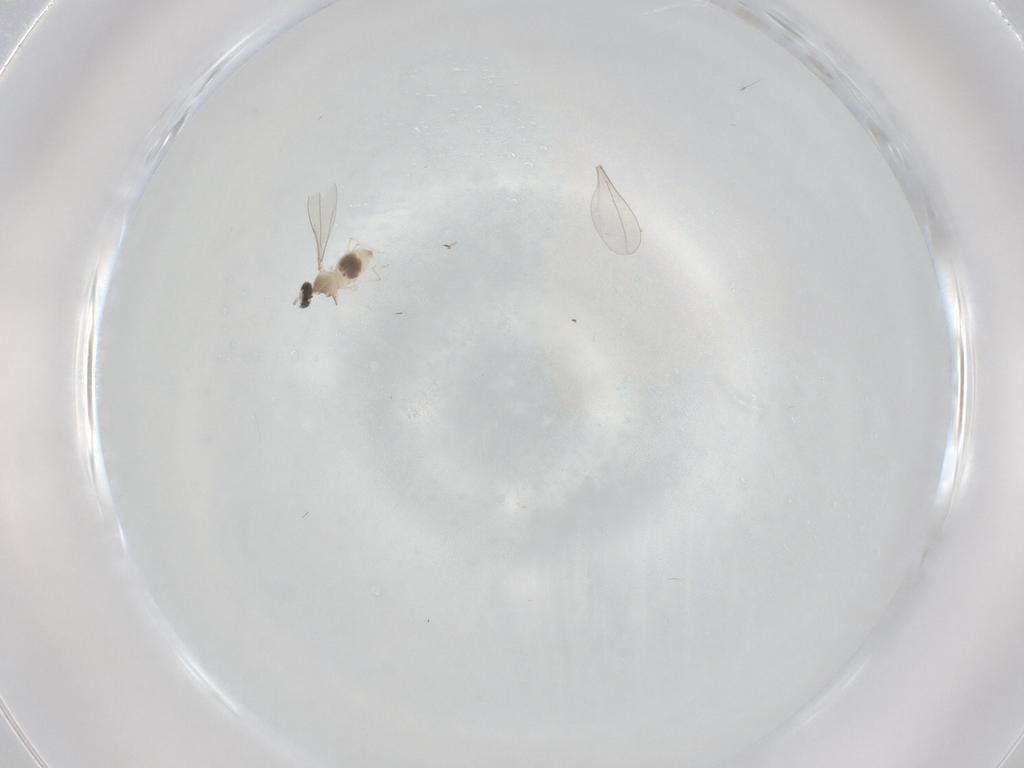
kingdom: Animalia
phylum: Arthropoda
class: Insecta
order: Diptera
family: Cecidomyiidae
